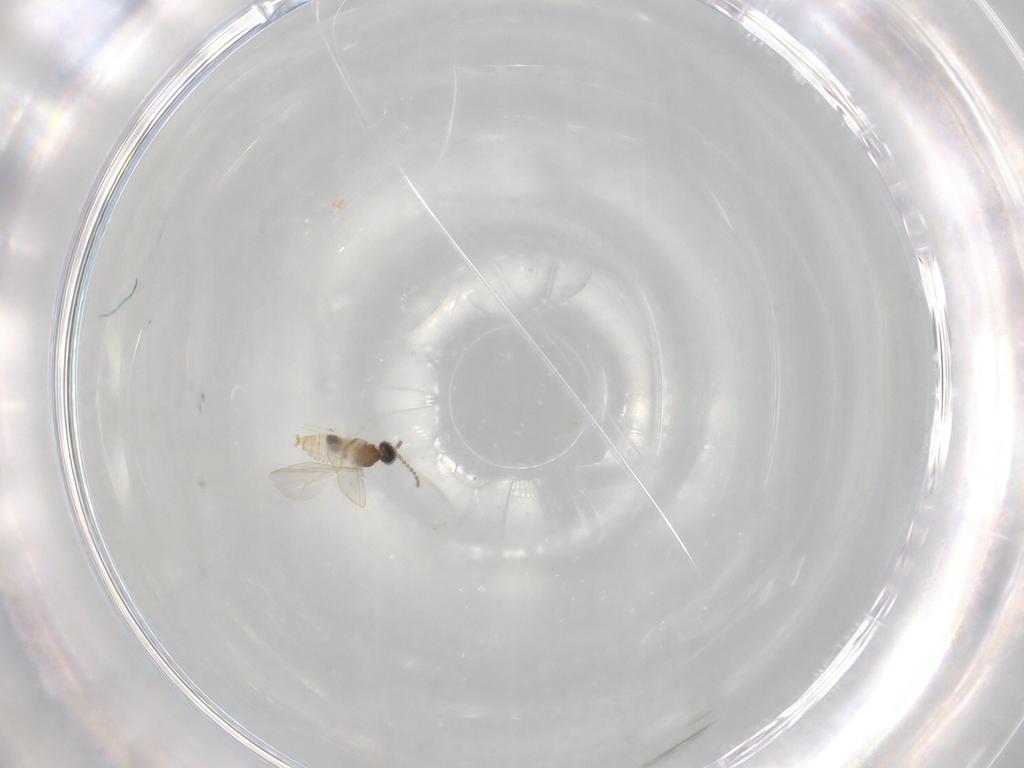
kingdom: Animalia
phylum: Arthropoda
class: Insecta
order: Diptera
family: Cecidomyiidae
